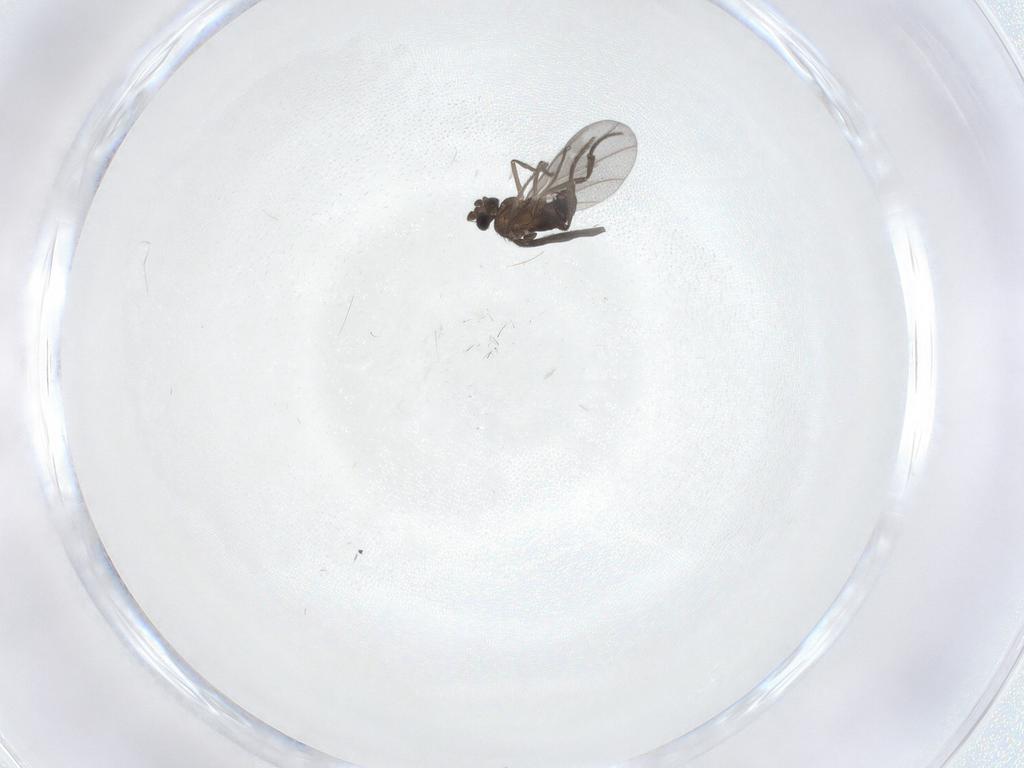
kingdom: Animalia
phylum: Arthropoda
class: Insecta
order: Diptera
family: Phoridae
